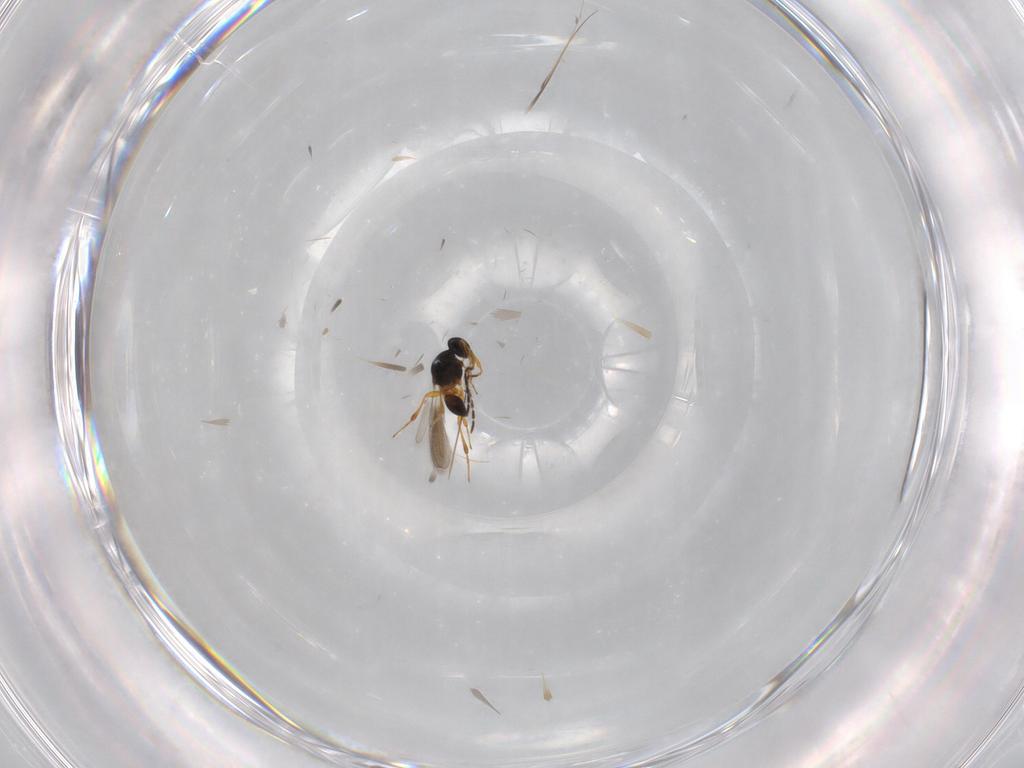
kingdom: Animalia
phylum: Arthropoda
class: Insecta
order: Hymenoptera
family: Platygastridae
